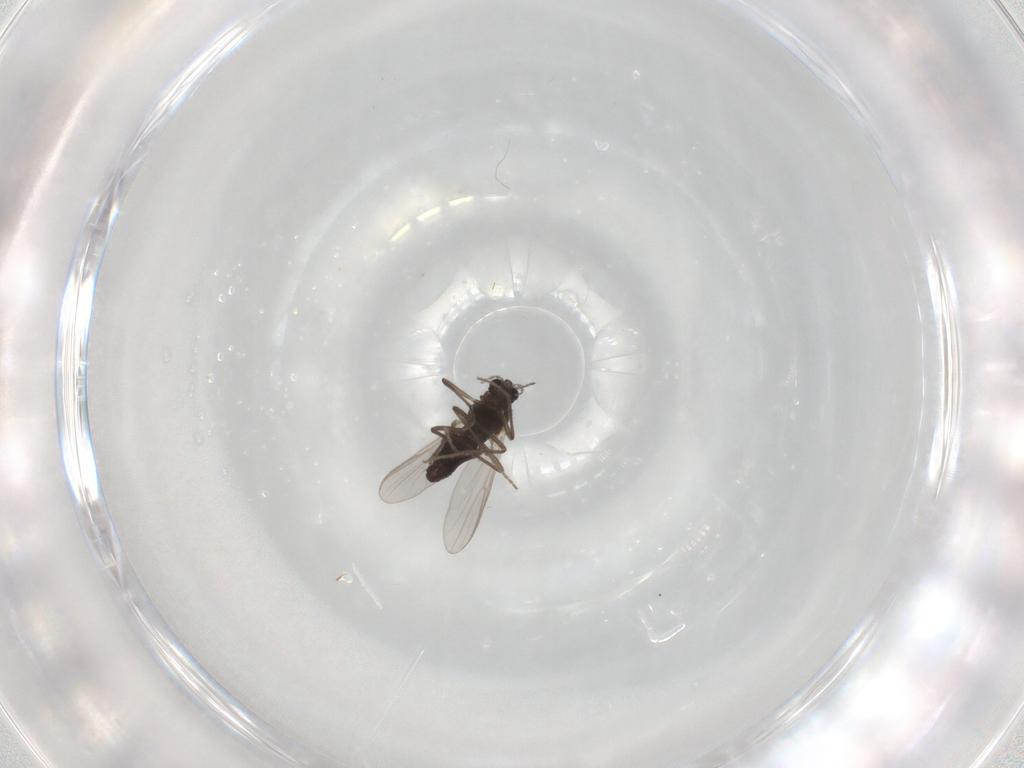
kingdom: Animalia
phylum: Arthropoda
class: Insecta
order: Diptera
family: Chironomidae
